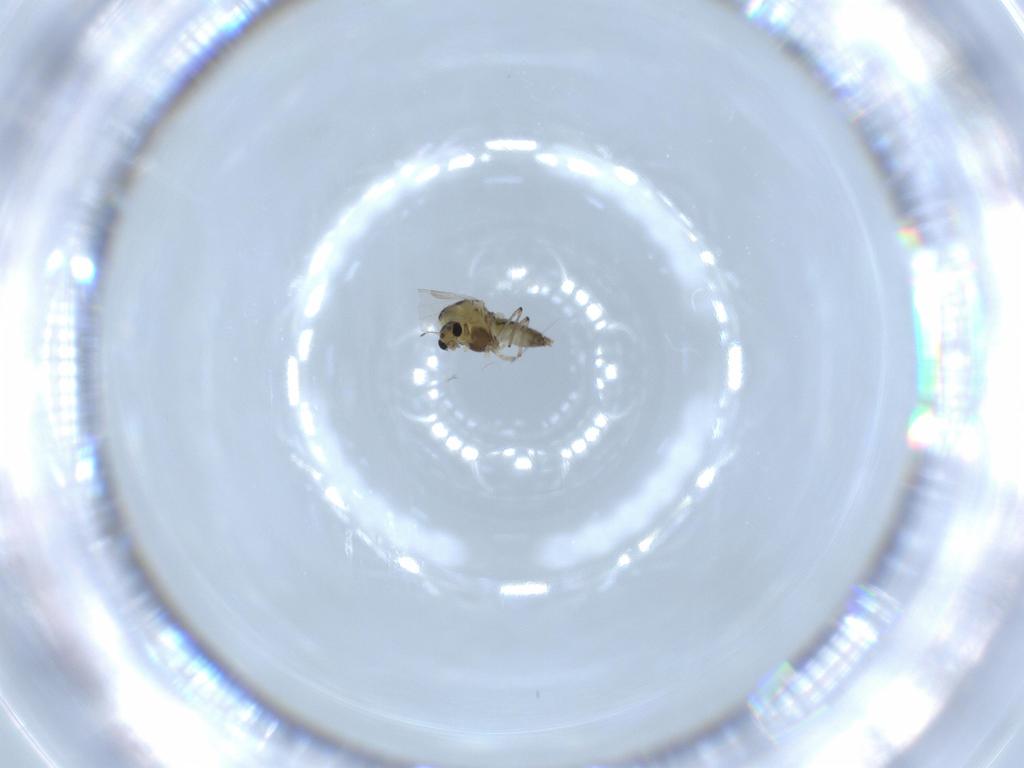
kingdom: Animalia
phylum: Arthropoda
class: Insecta
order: Diptera
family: Chironomidae
